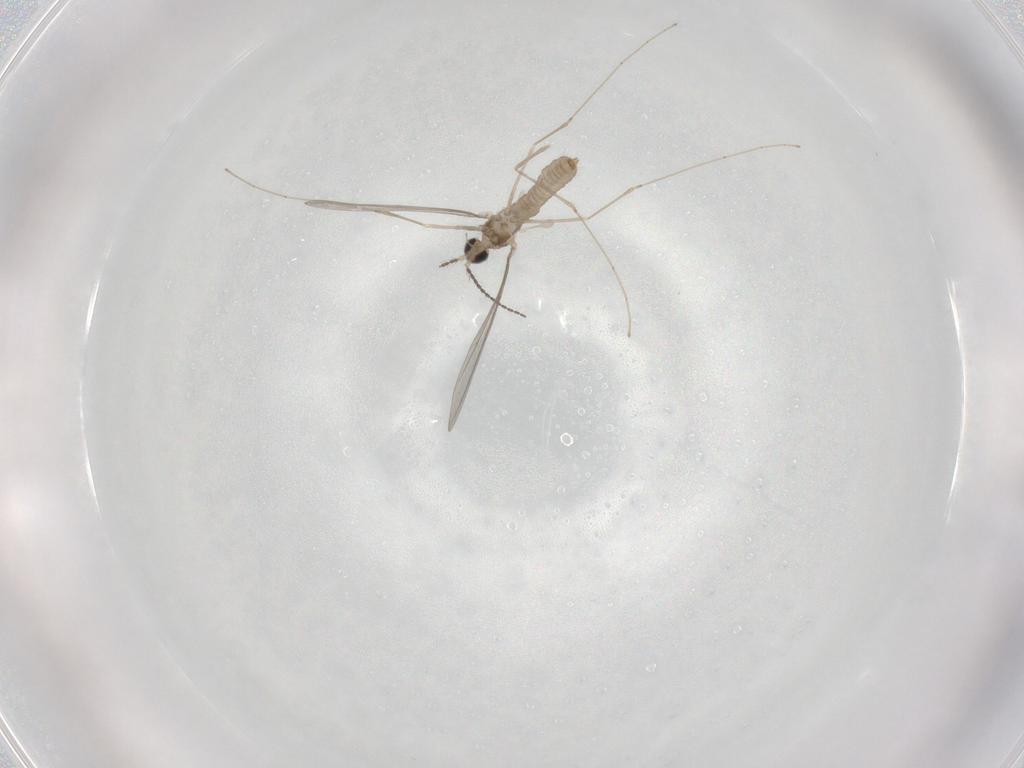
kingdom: Animalia
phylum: Arthropoda
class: Insecta
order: Diptera
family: Cecidomyiidae
